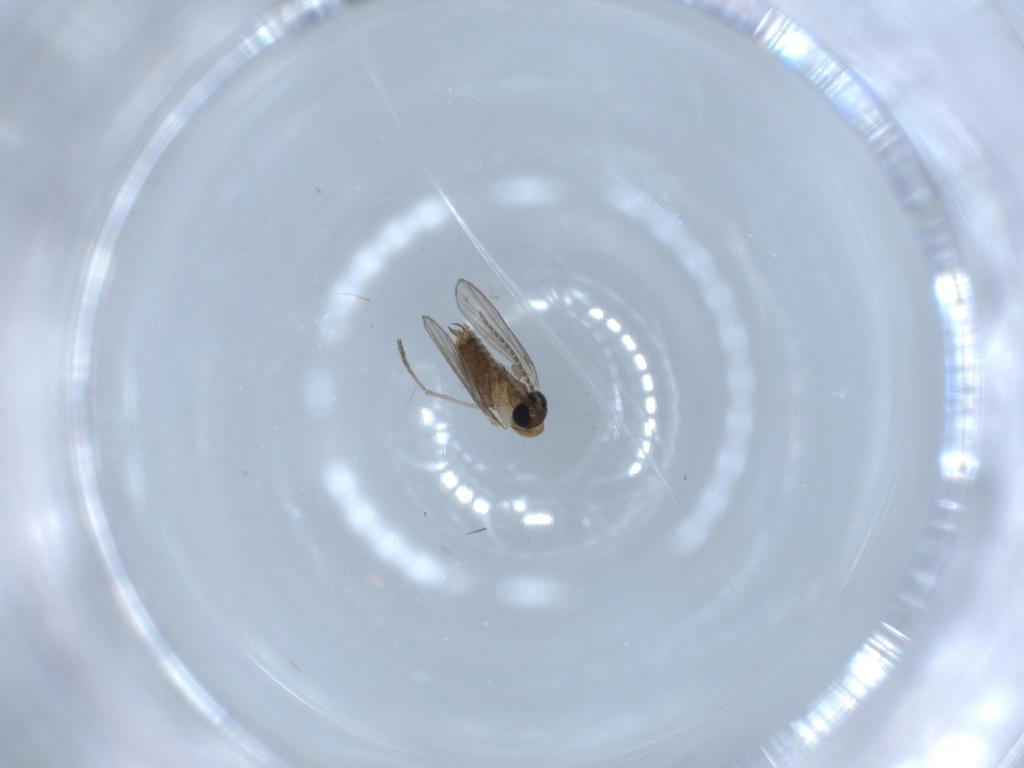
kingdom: Animalia
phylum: Arthropoda
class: Insecta
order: Diptera
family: Psychodidae
